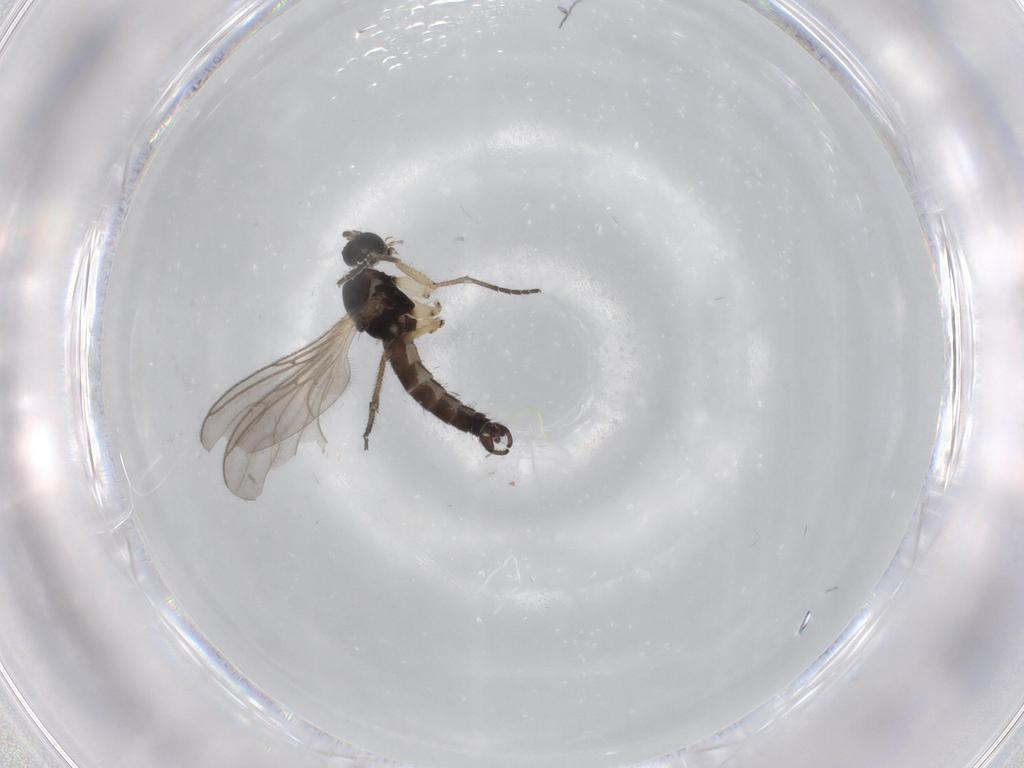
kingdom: Animalia
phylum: Arthropoda
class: Insecta
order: Diptera
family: Sciaridae
